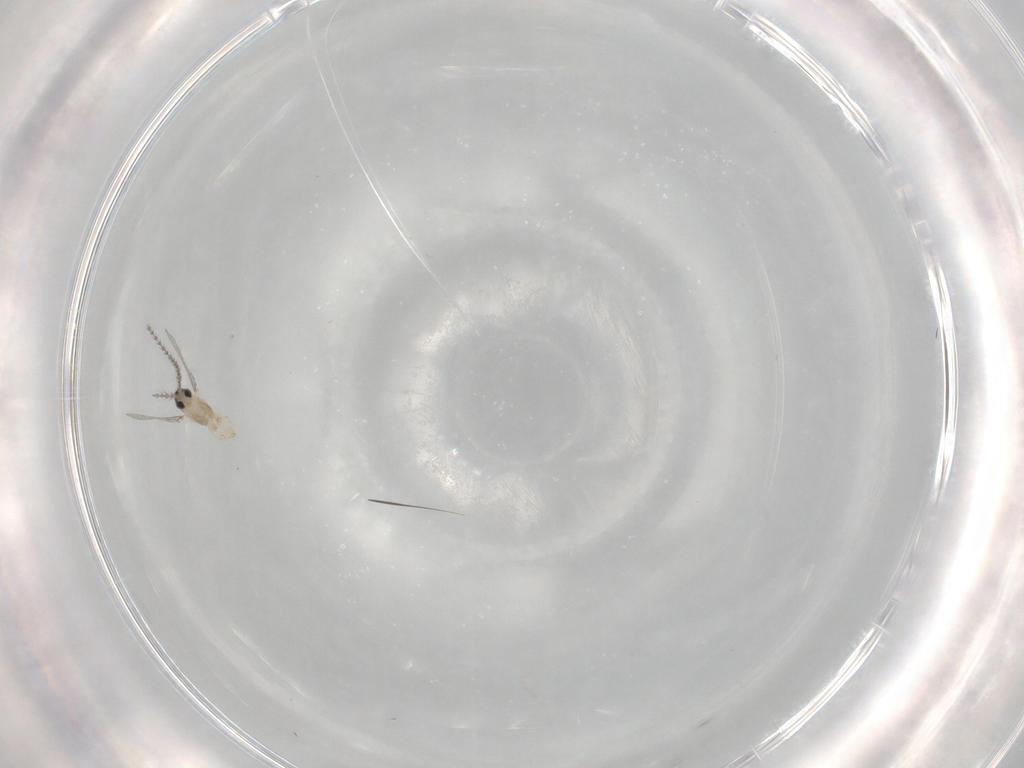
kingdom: Animalia
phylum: Arthropoda
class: Insecta
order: Diptera
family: Cecidomyiidae
